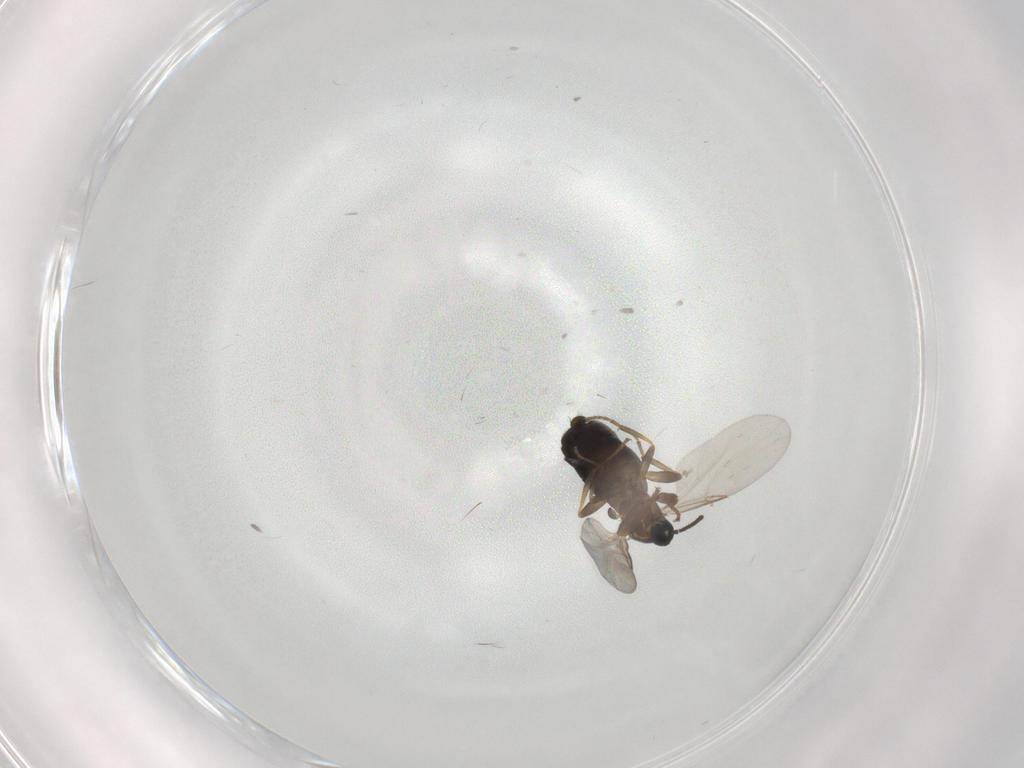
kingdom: Animalia
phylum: Arthropoda
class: Insecta
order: Diptera
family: Scatopsidae
